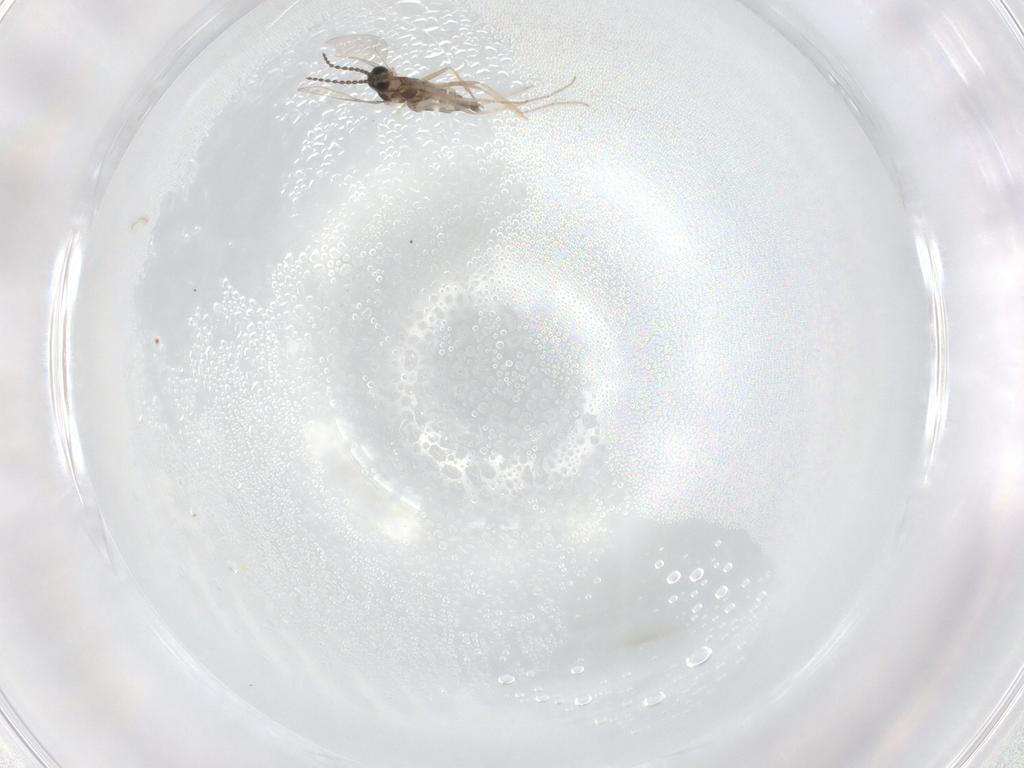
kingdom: Animalia
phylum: Arthropoda
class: Insecta
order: Diptera
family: Cecidomyiidae
